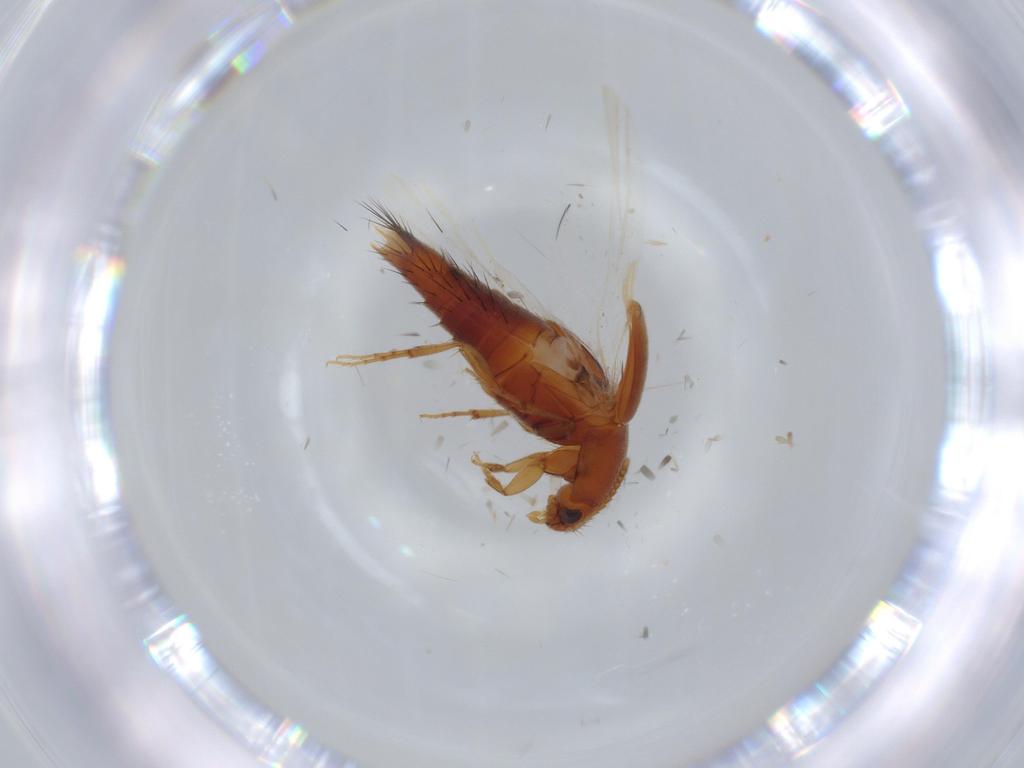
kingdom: Animalia
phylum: Arthropoda
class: Insecta
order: Coleoptera
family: Staphylinidae
